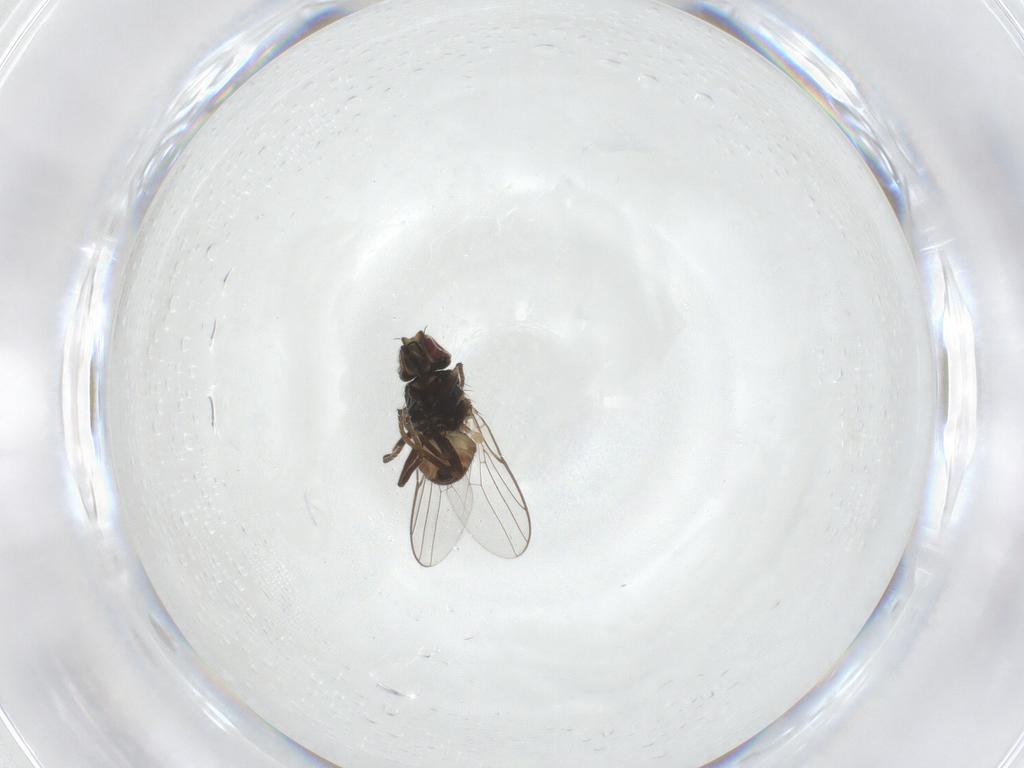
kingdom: Animalia
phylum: Arthropoda
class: Insecta
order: Diptera
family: Chloropidae
